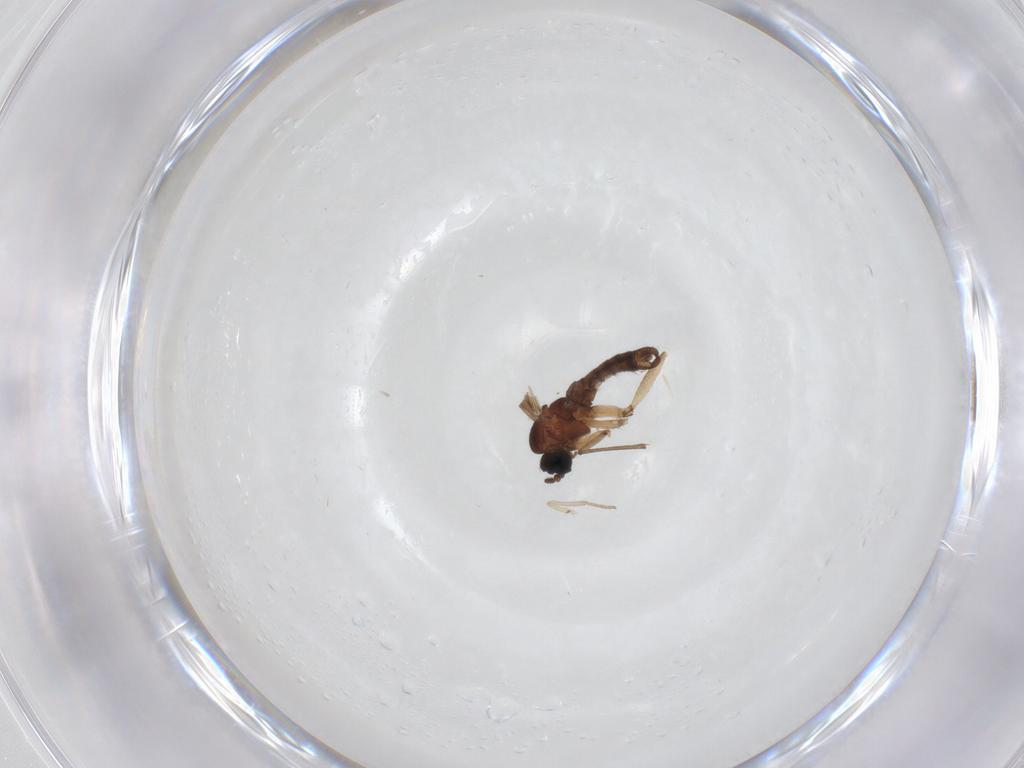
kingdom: Animalia
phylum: Arthropoda
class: Insecta
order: Diptera
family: Sciaridae
